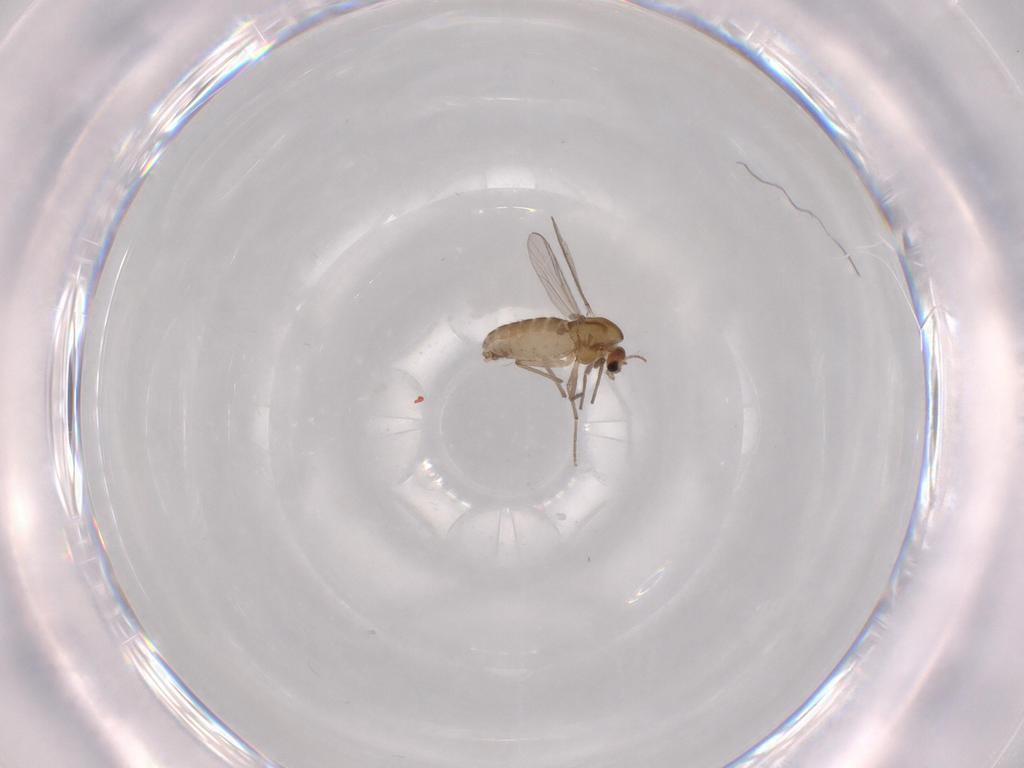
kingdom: Animalia
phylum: Arthropoda
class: Insecta
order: Diptera
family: Chironomidae
